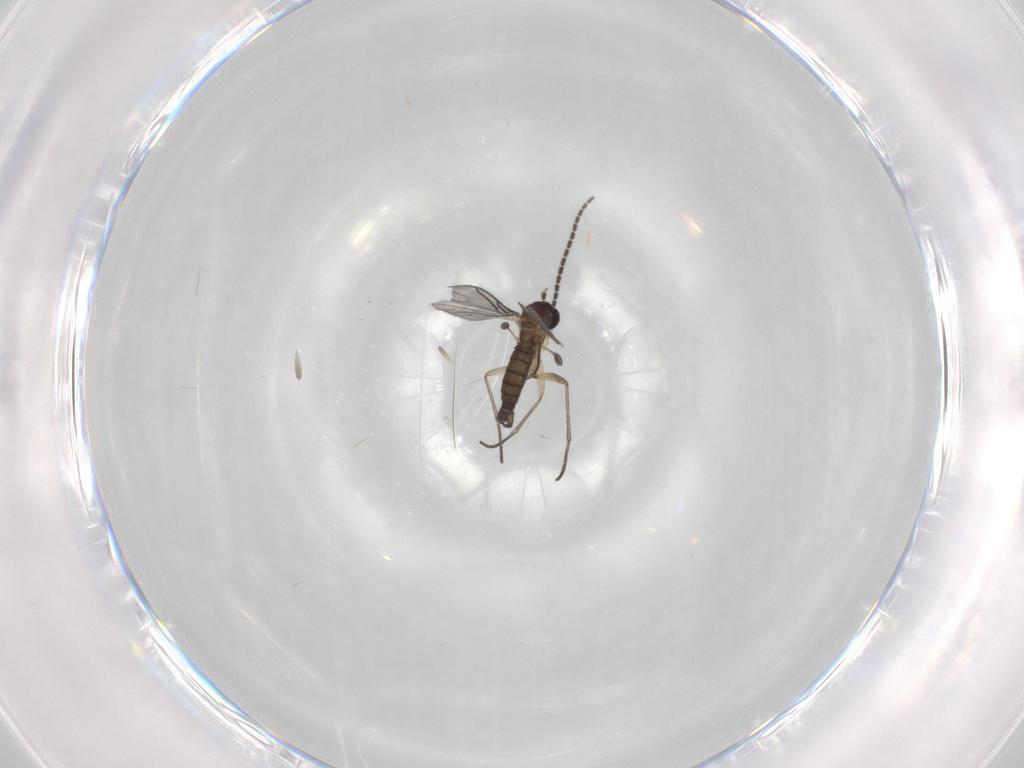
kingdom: Animalia
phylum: Arthropoda
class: Insecta
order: Diptera
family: Sciaridae
